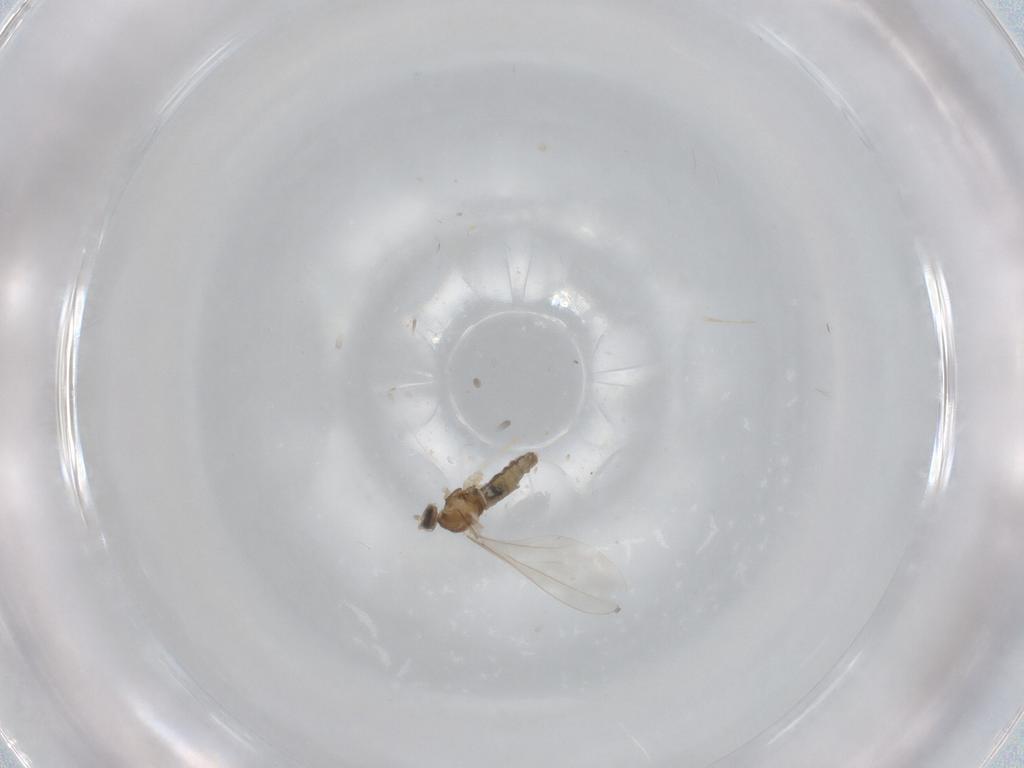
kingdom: Animalia
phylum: Arthropoda
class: Insecta
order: Diptera
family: Cecidomyiidae
